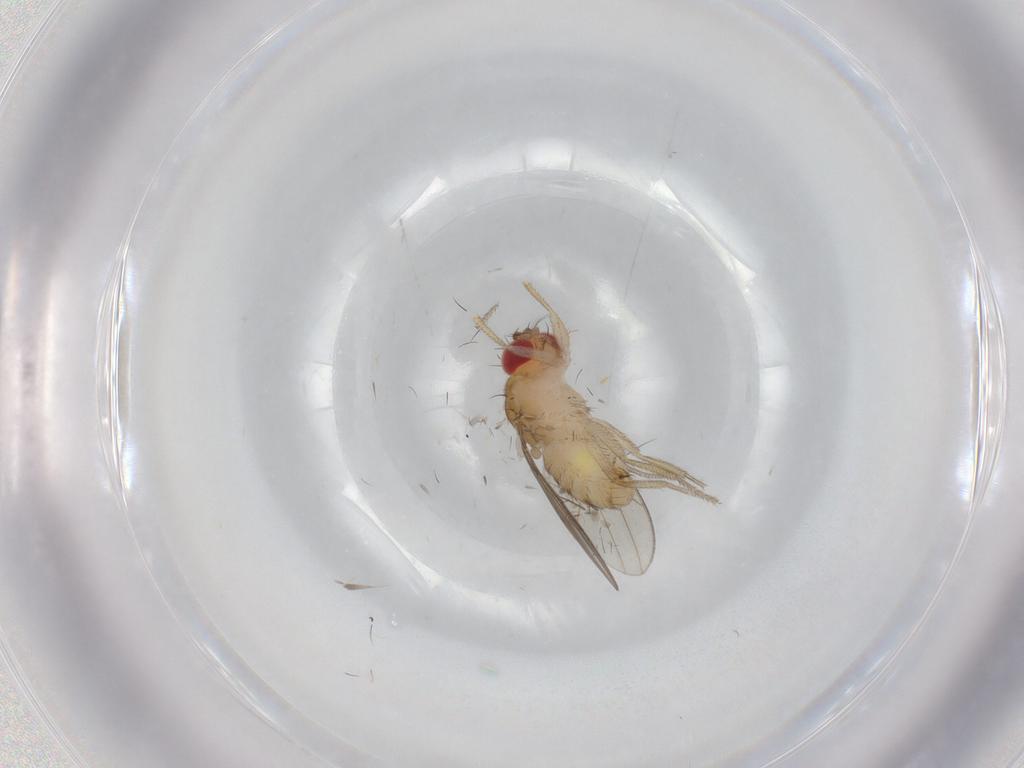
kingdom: Animalia
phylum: Arthropoda
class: Insecta
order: Diptera
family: Drosophilidae
